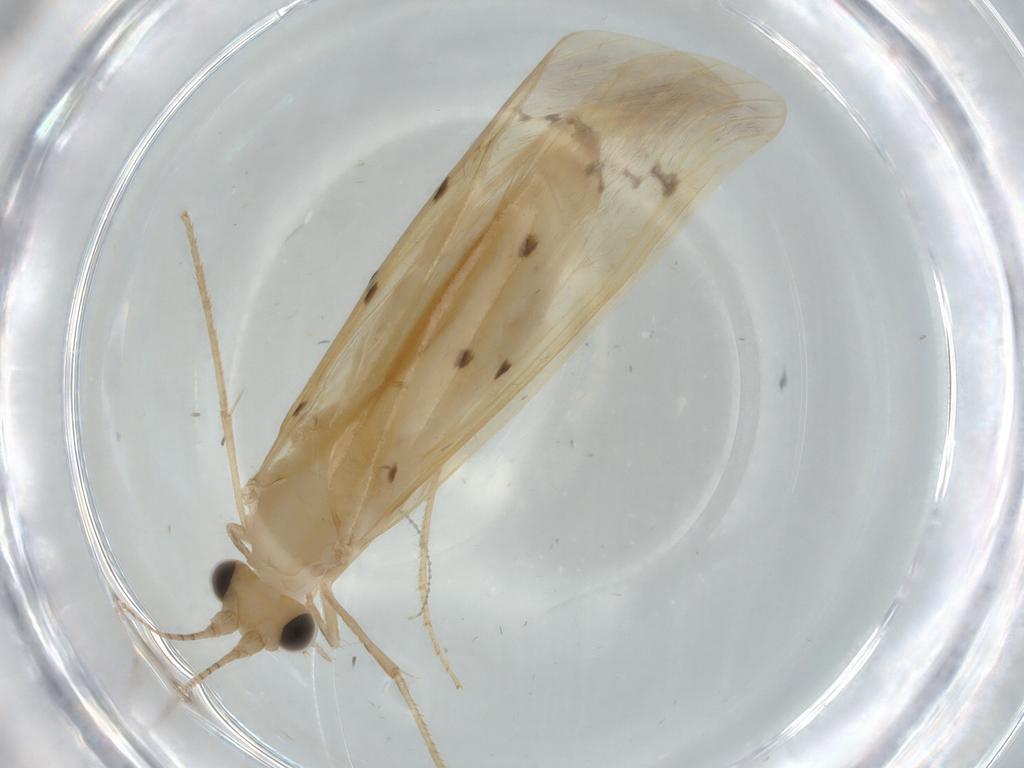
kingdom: Animalia
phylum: Arthropoda
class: Insecta
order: Trichoptera
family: Leptoceridae
